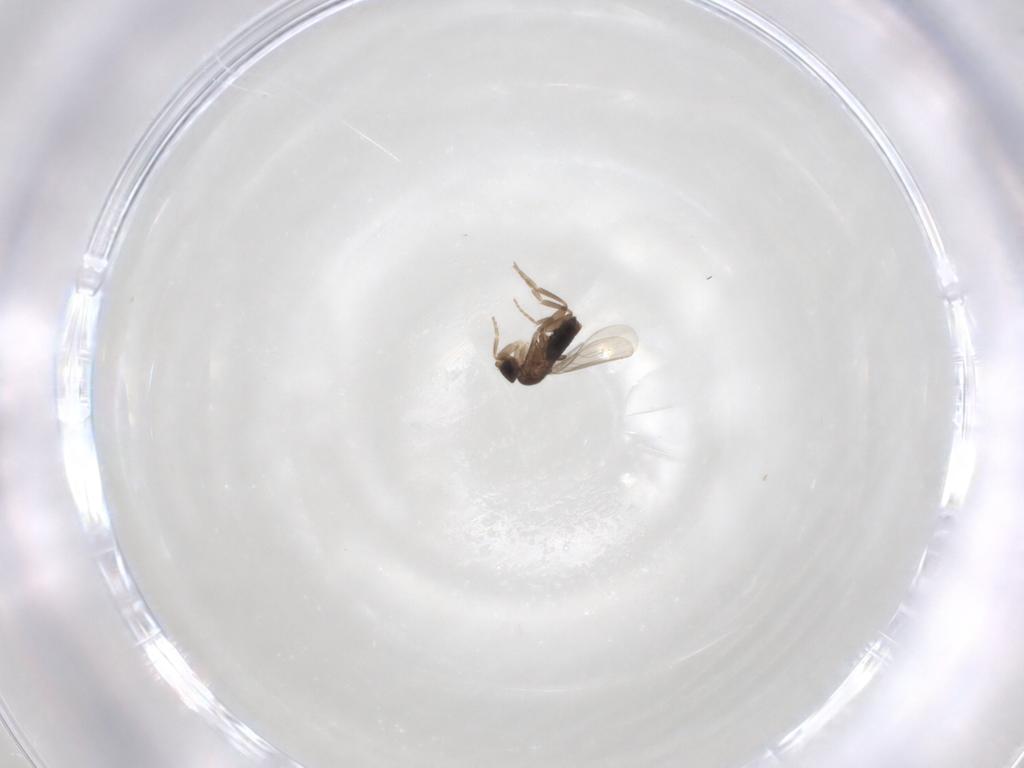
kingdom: Animalia
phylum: Arthropoda
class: Insecta
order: Diptera
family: Phoridae
